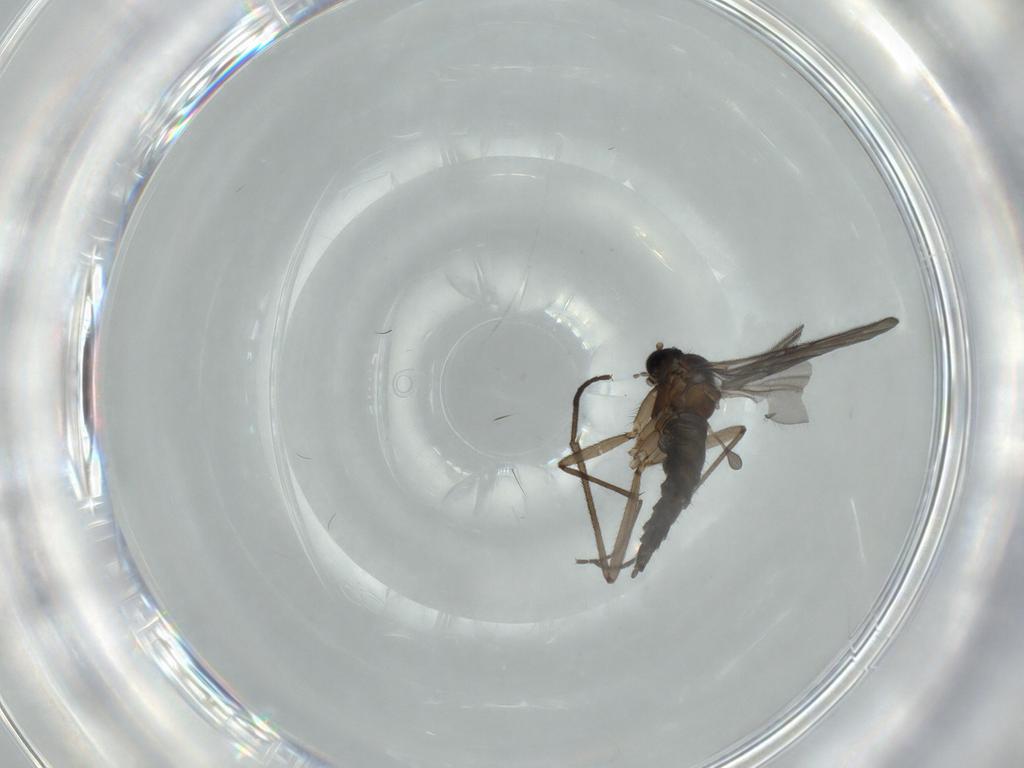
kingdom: Animalia
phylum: Arthropoda
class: Insecta
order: Diptera
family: Sciaridae
